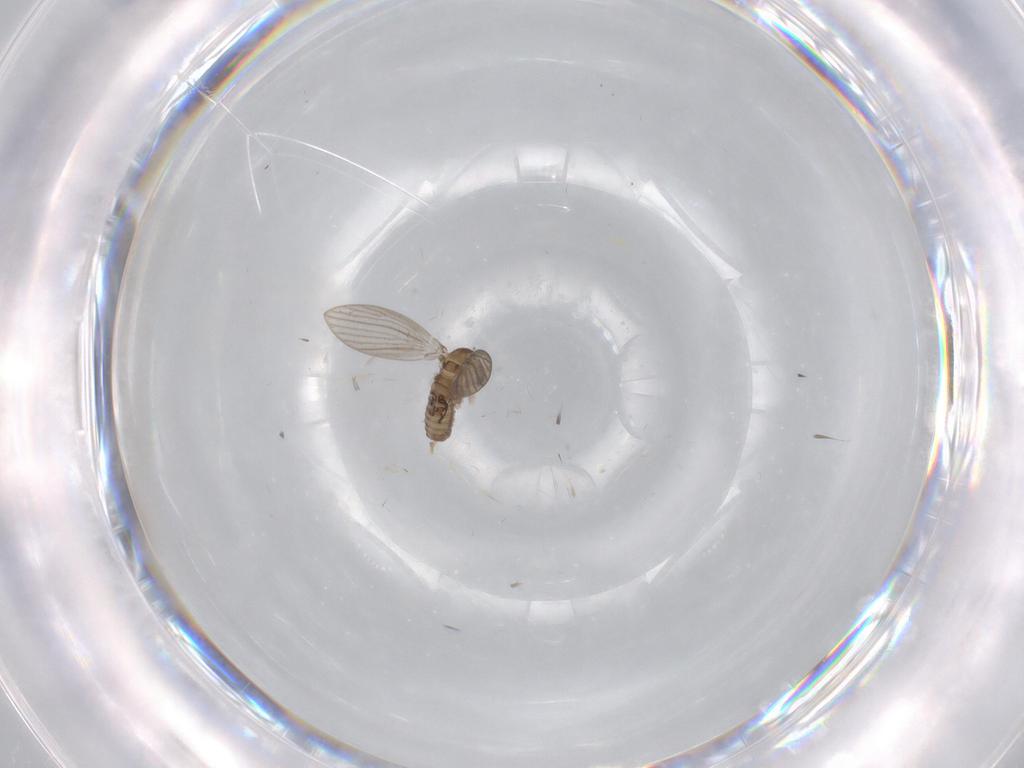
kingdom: Animalia
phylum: Arthropoda
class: Insecta
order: Diptera
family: Psychodidae
